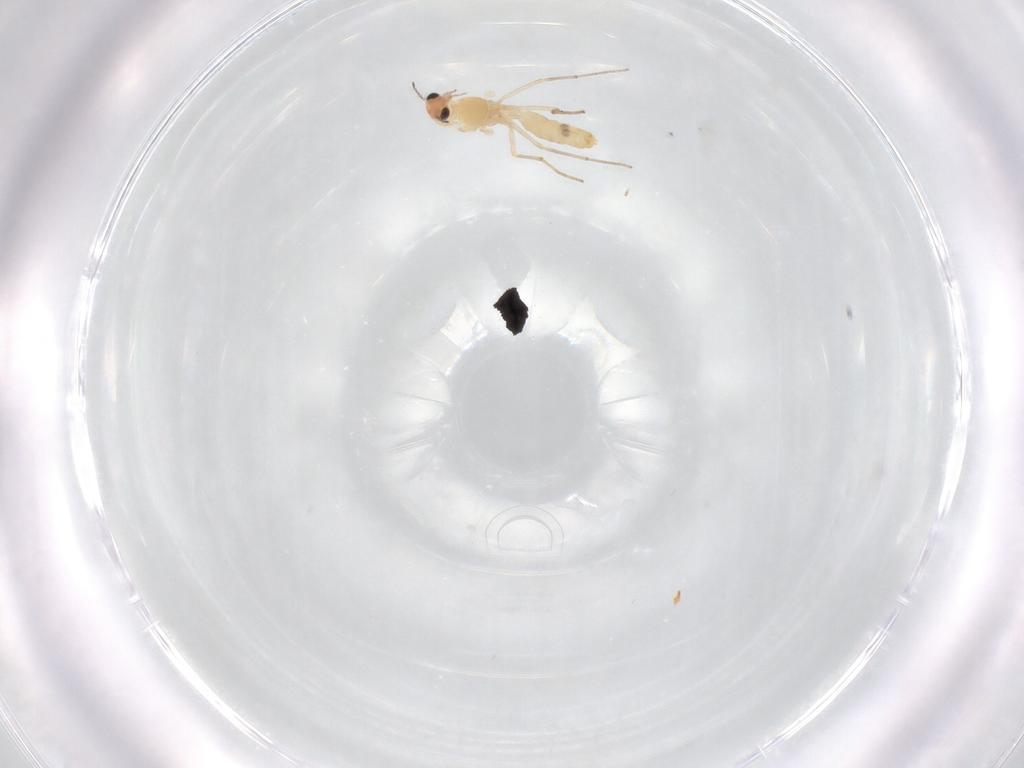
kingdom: Animalia
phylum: Arthropoda
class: Insecta
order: Diptera
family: Chironomidae
